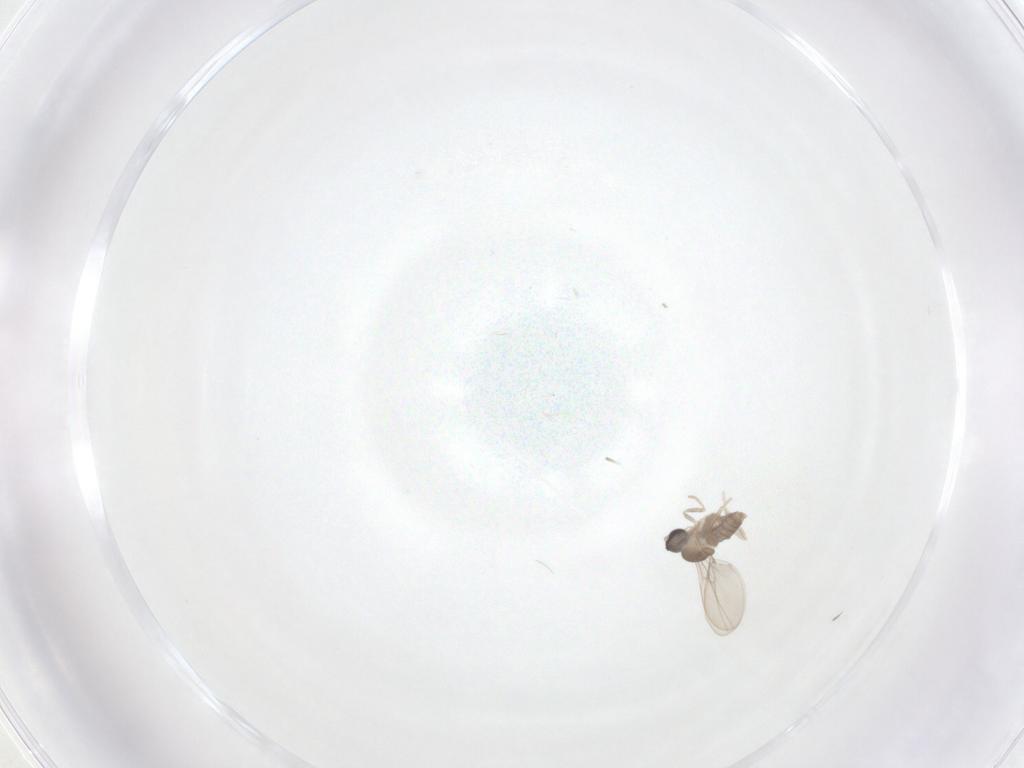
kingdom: Animalia
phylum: Arthropoda
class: Insecta
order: Diptera
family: Cecidomyiidae
